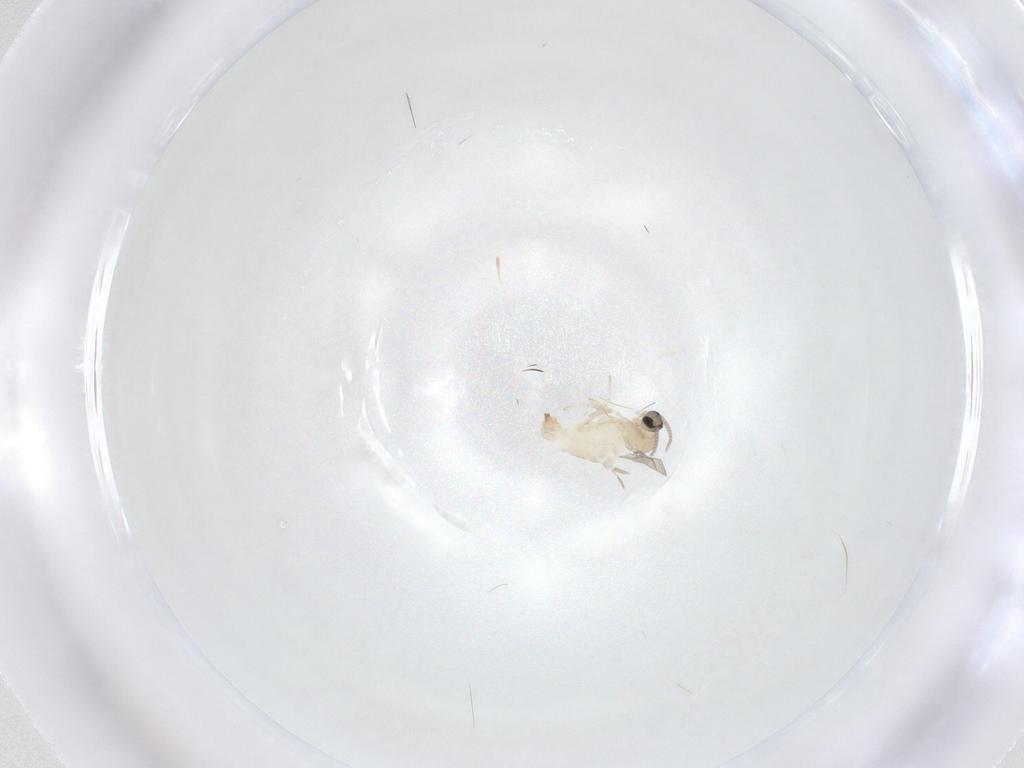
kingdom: Animalia
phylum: Arthropoda
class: Insecta
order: Diptera
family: Cecidomyiidae
